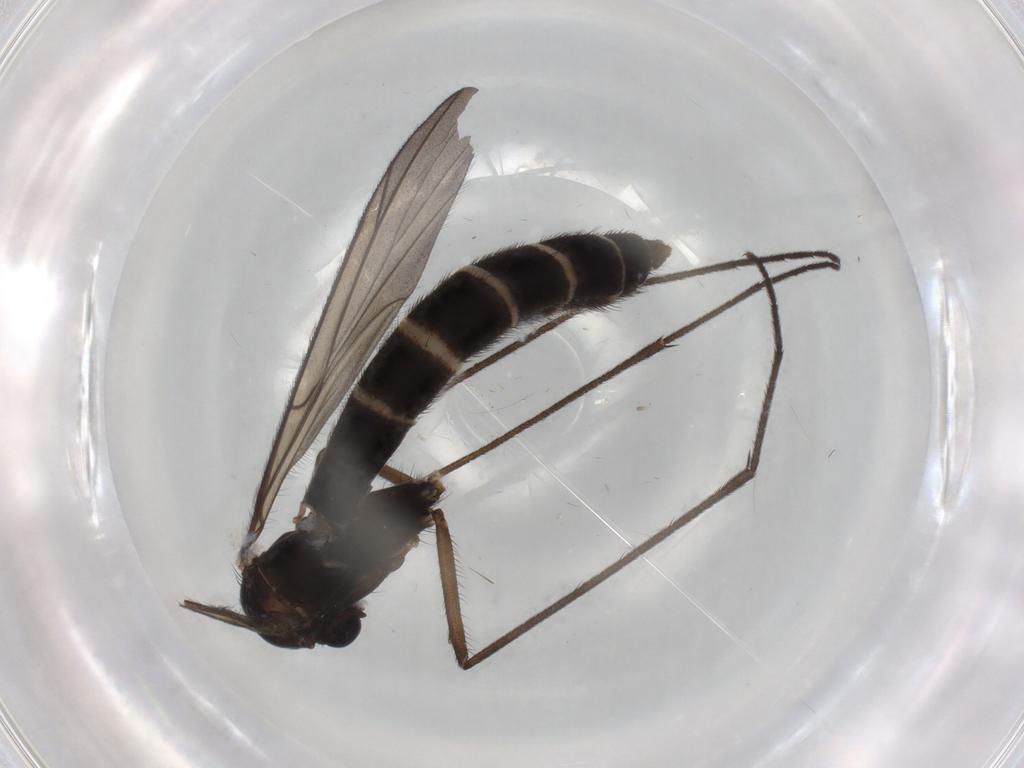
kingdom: Animalia
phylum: Arthropoda
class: Insecta
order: Diptera
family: Ditomyiidae
